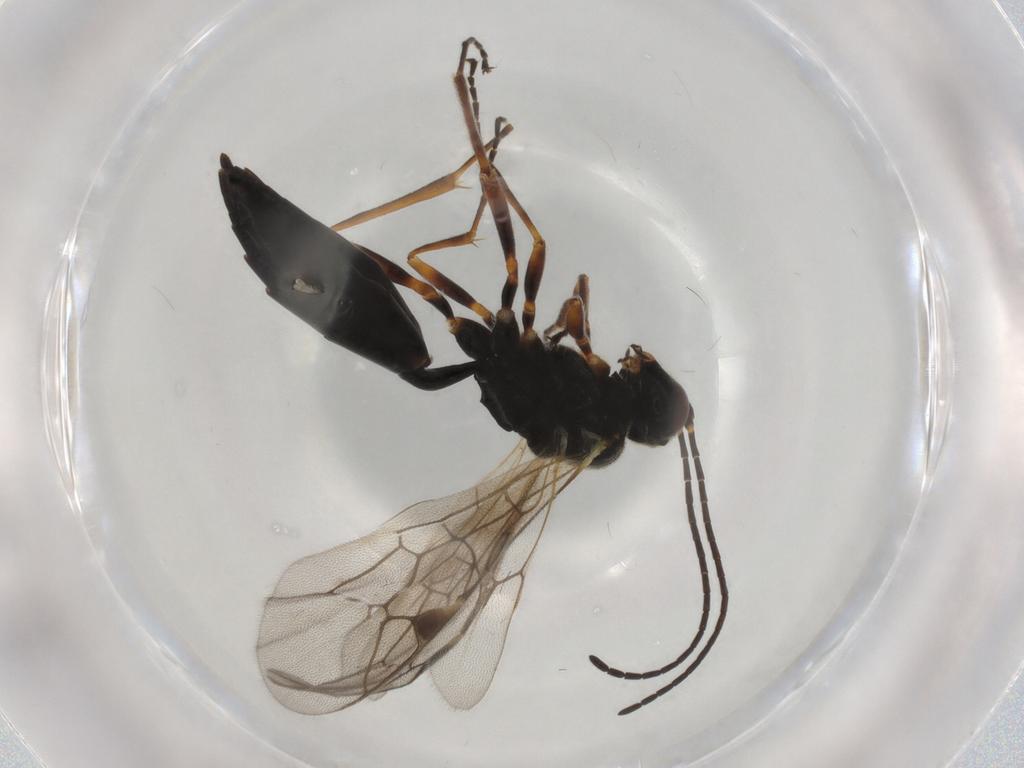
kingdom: Animalia
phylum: Arthropoda
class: Insecta
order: Hymenoptera
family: Ichneumonidae
